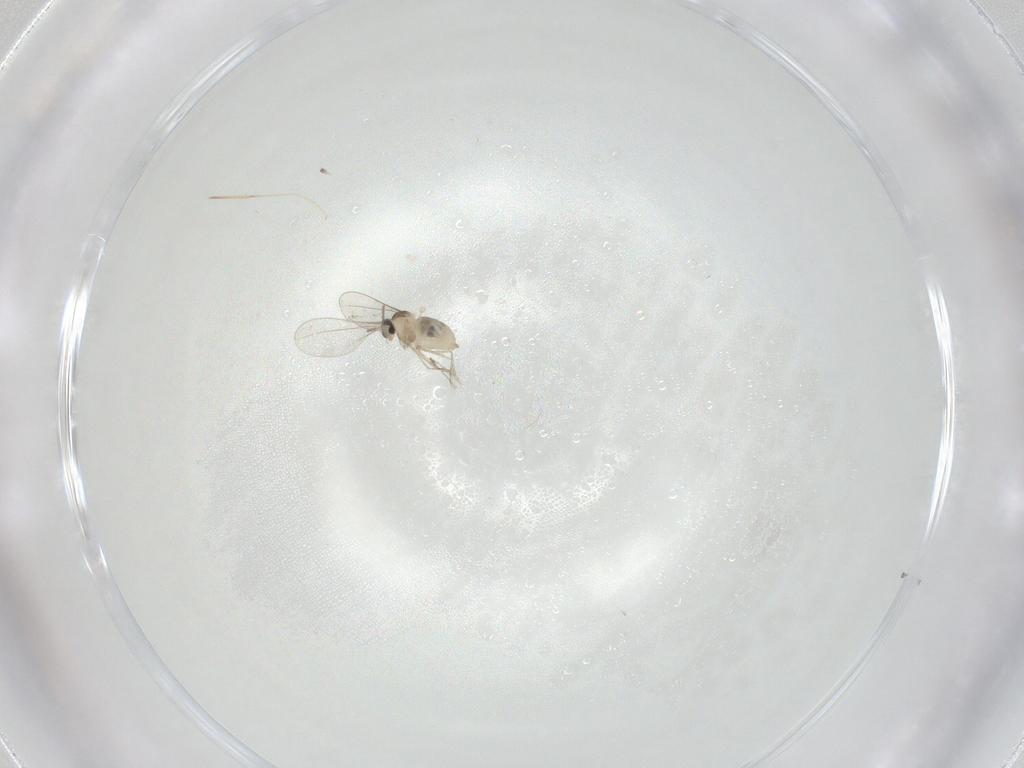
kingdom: Animalia
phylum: Arthropoda
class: Insecta
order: Diptera
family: Cecidomyiidae
